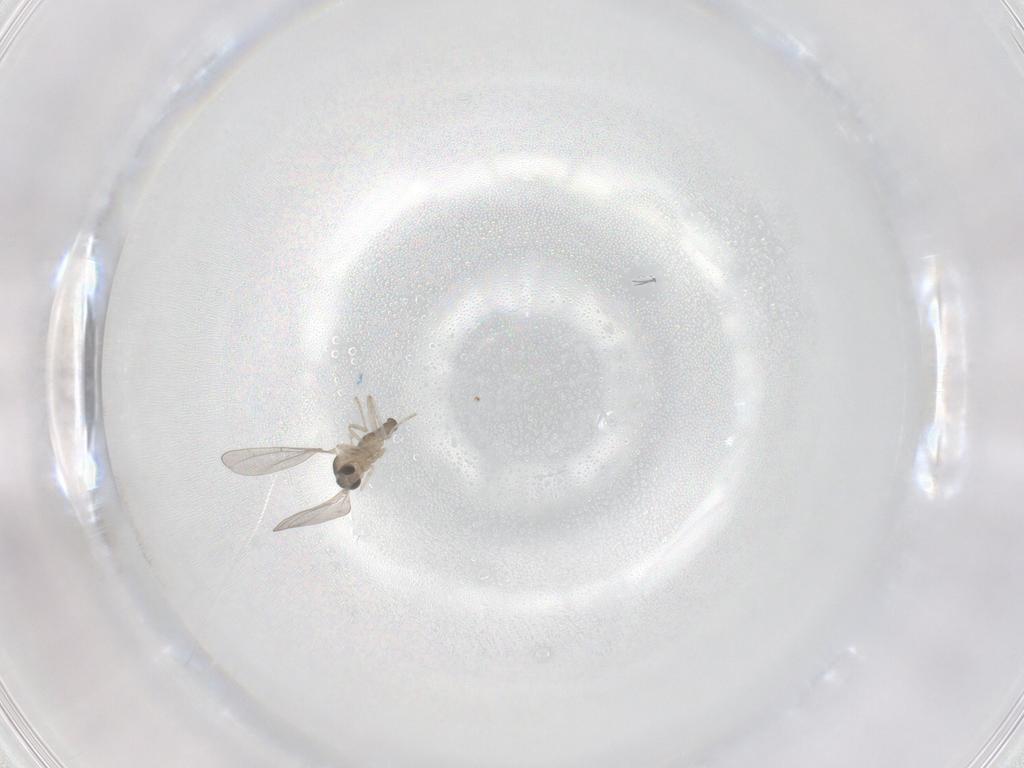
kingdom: Animalia
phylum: Arthropoda
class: Insecta
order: Diptera
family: Cecidomyiidae
